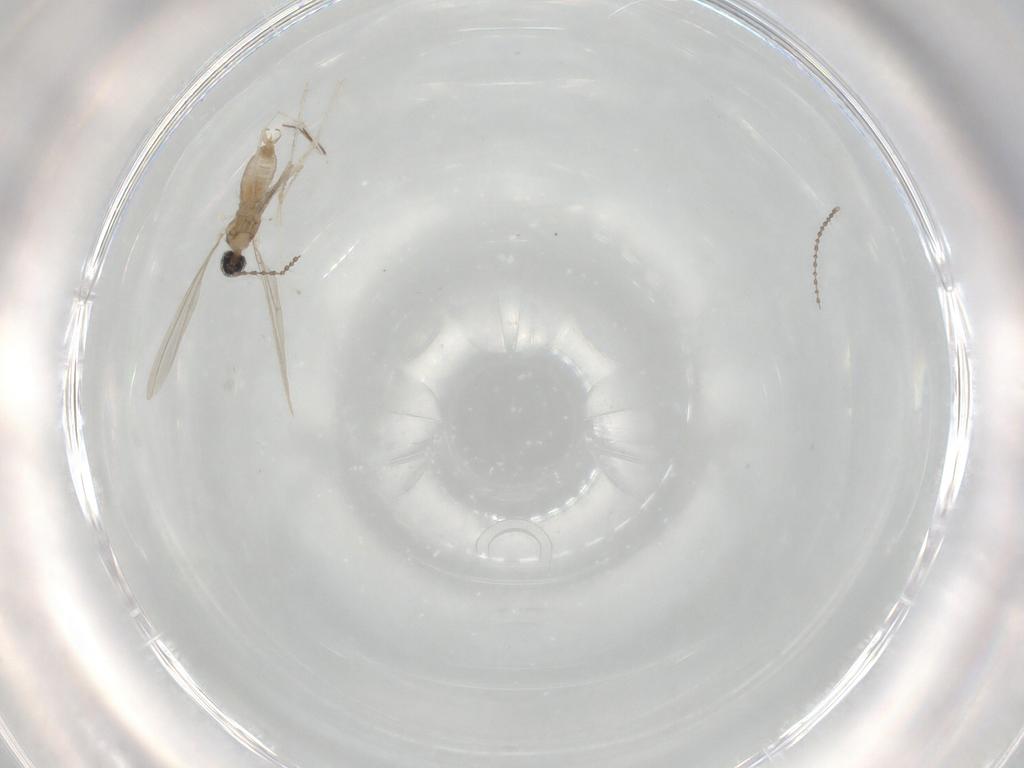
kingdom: Animalia
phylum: Arthropoda
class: Insecta
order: Diptera
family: Cecidomyiidae
